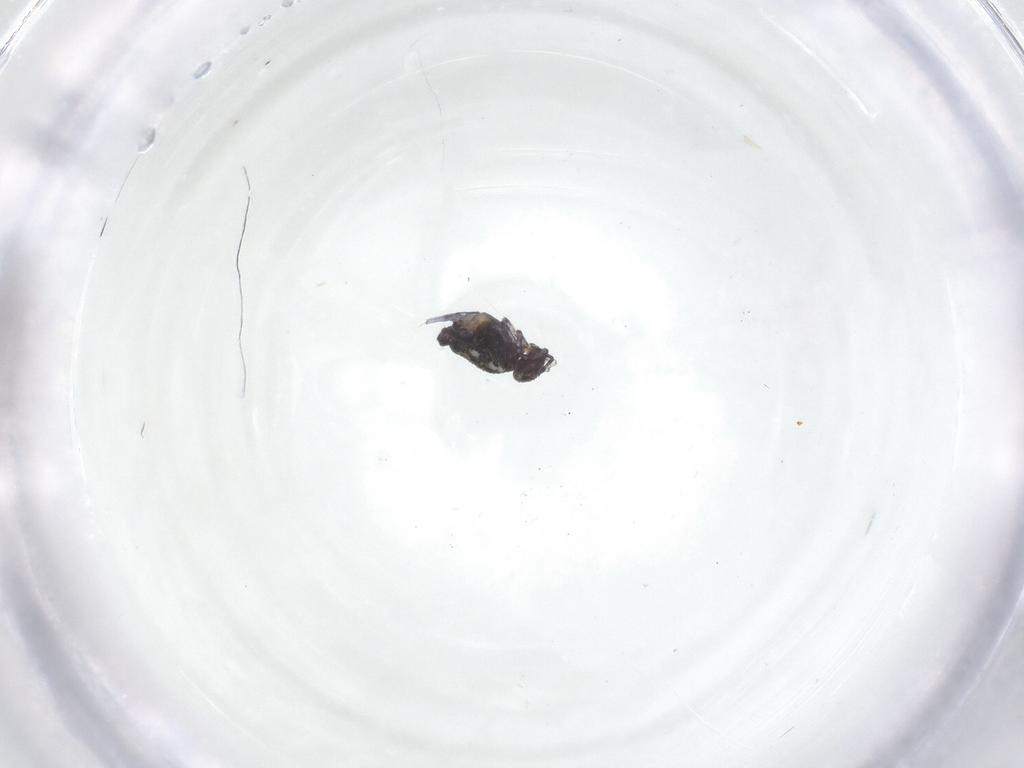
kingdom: Animalia
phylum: Arthropoda
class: Collembola
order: Symphypleona
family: Bourletiellidae
